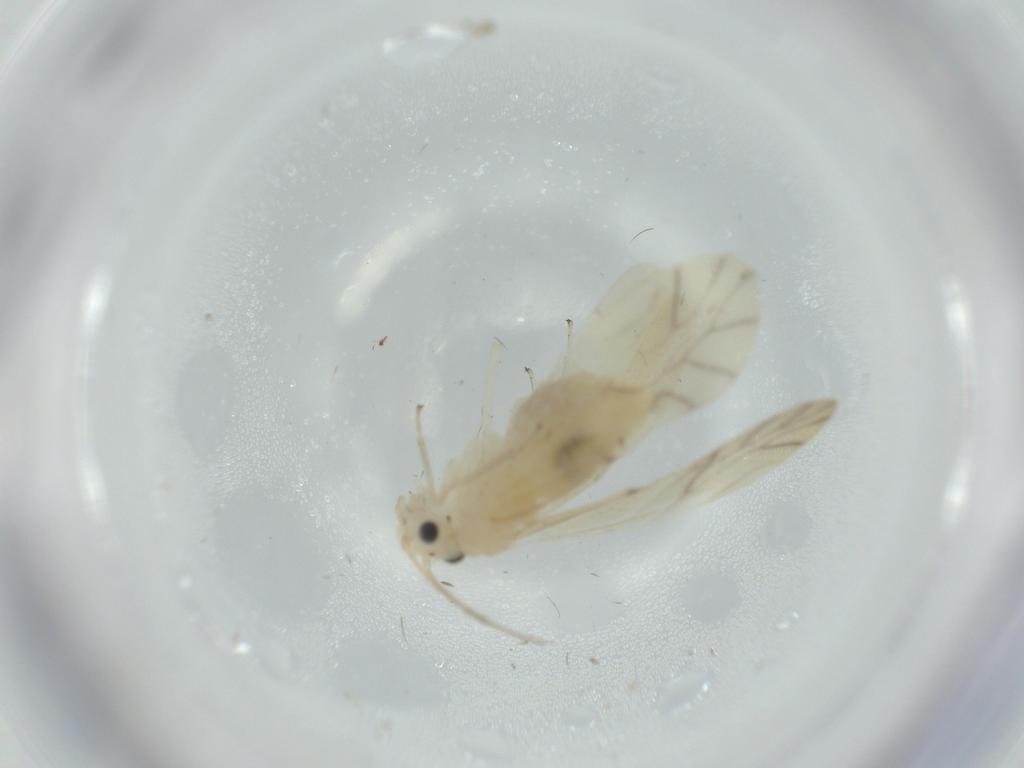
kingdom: Animalia
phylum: Arthropoda
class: Insecta
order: Psocodea
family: Caeciliusidae
